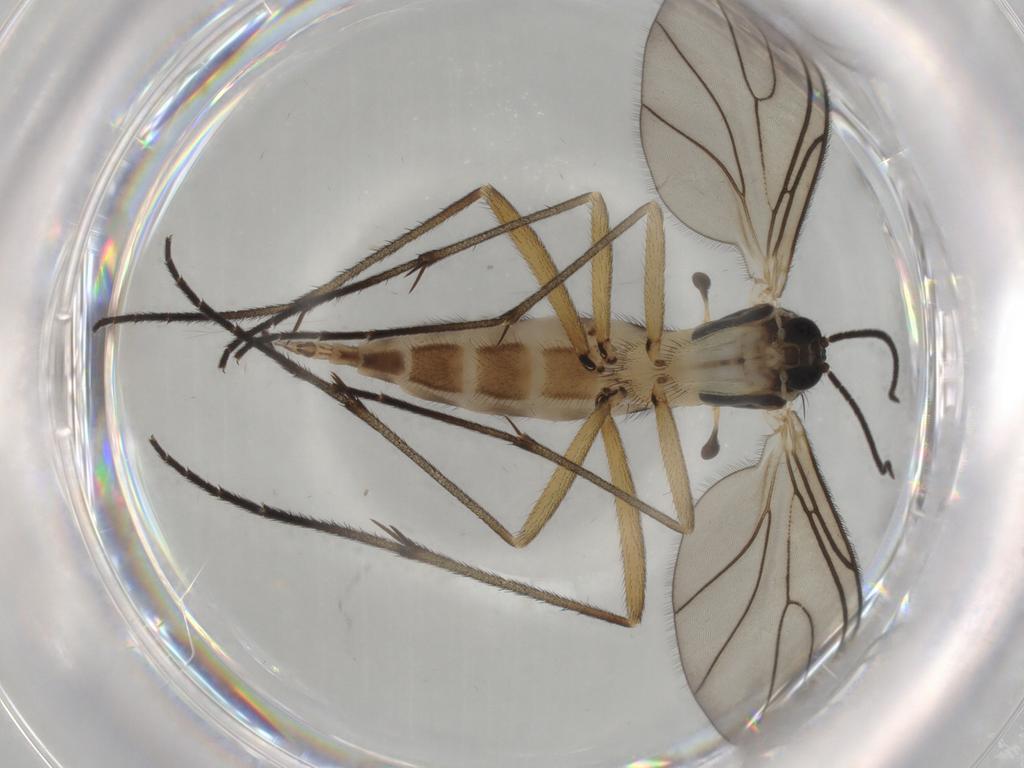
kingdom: Animalia
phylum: Arthropoda
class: Insecta
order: Diptera
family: Sciaridae
